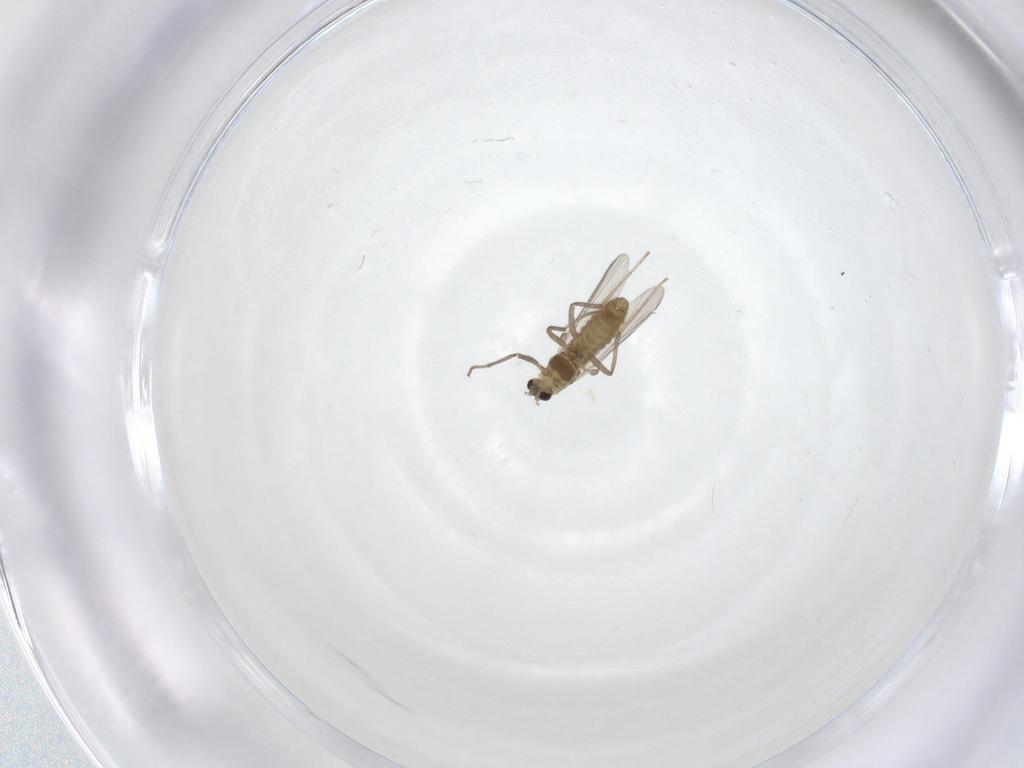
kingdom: Animalia
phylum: Arthropoda
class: Insecta
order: Diptera
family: Chironomidae
